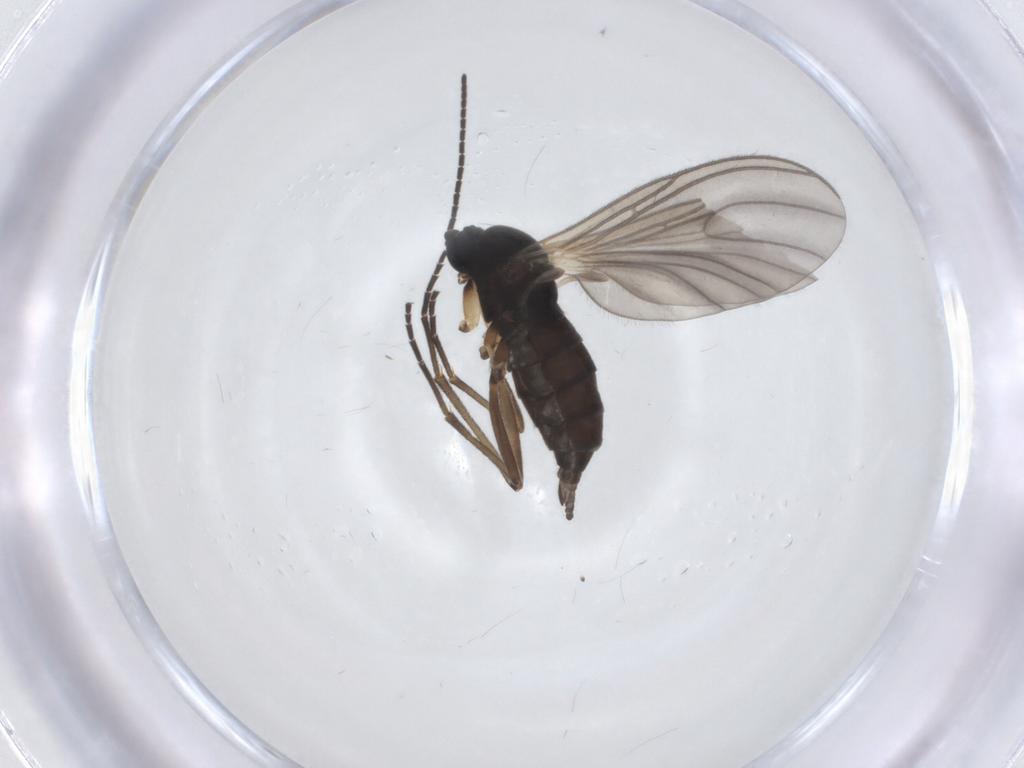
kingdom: Animalia
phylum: Arthropoda
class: Insecta
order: Diptera
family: Sciaridae
